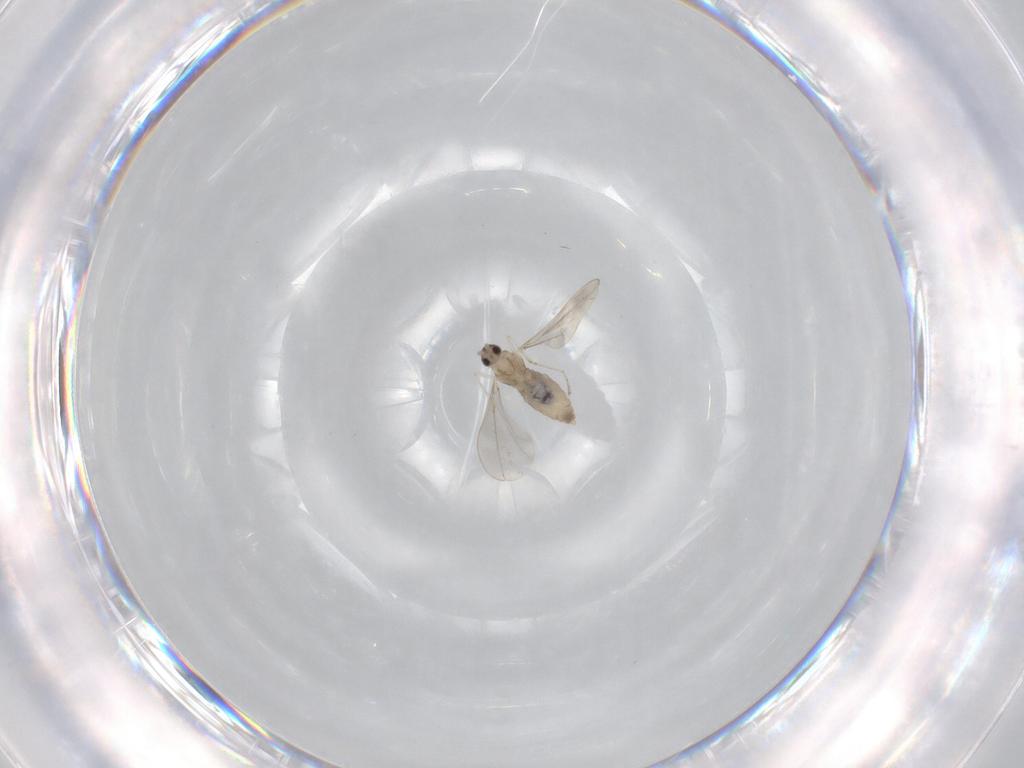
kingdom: Animalia
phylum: Arthropoda
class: Insecta
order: Diptera
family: Cecidomyiidae
